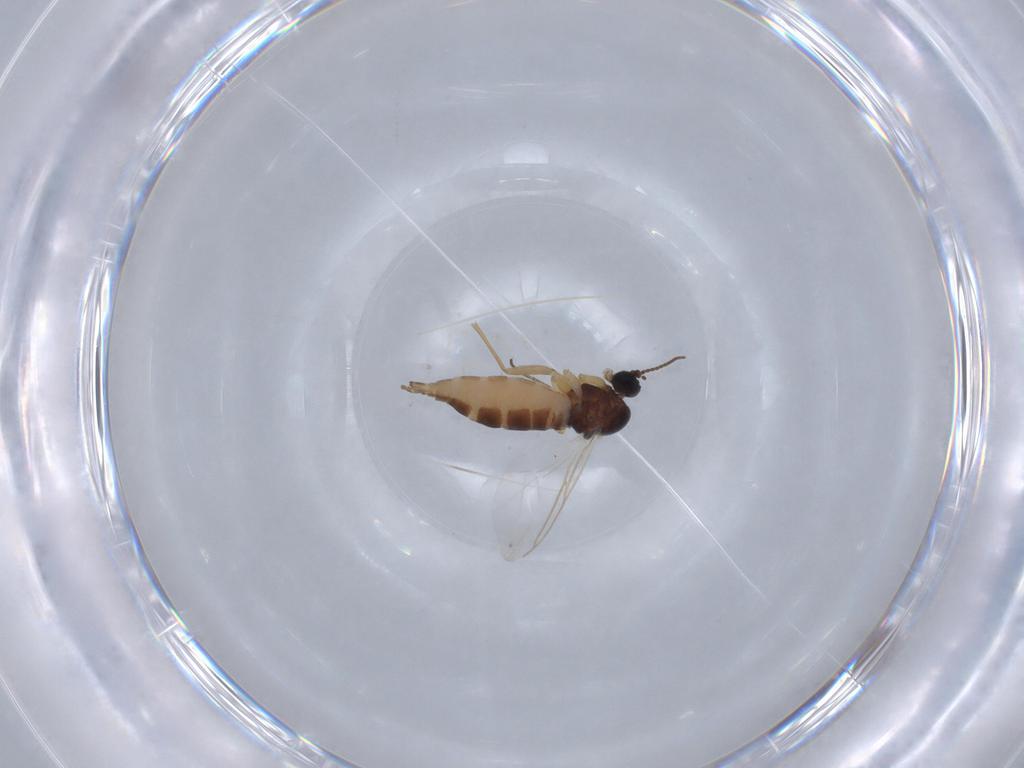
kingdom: Animalia
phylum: Arthropoda
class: Insecta
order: Diptera
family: Sciaridae
